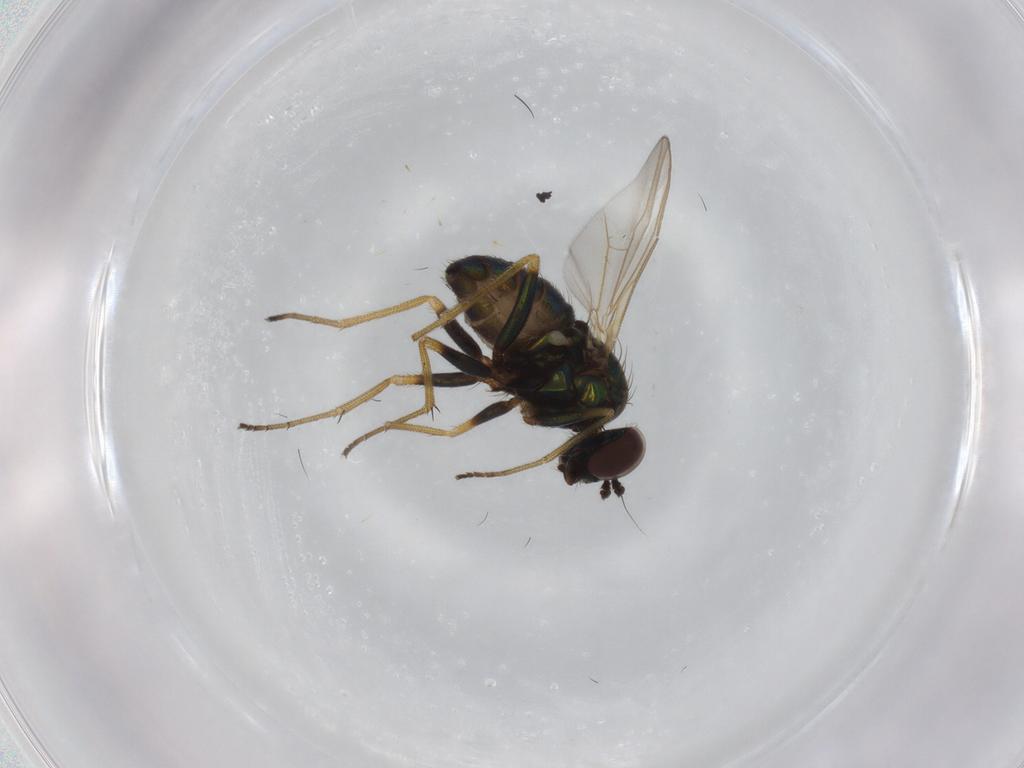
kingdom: Animalia
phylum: Arthropoda
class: Insecta
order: Diptera
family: Dolichopodidae
